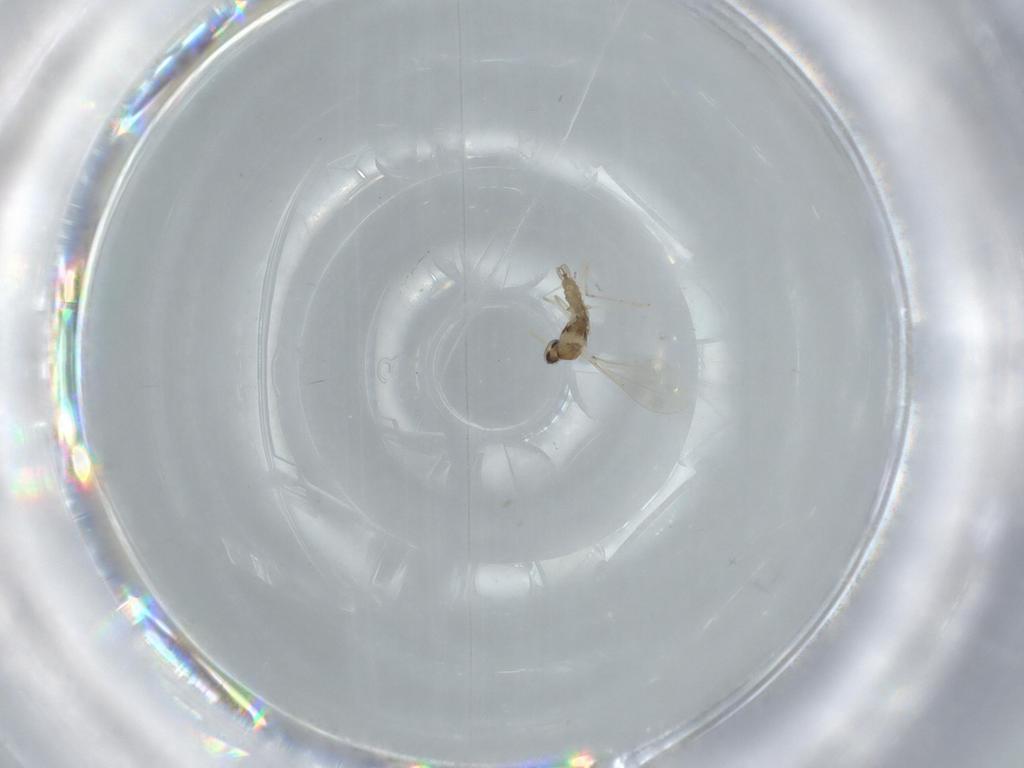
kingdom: Animalia
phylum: Arthropoda
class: Insecta
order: Diptera
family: Cecidomyiidae
